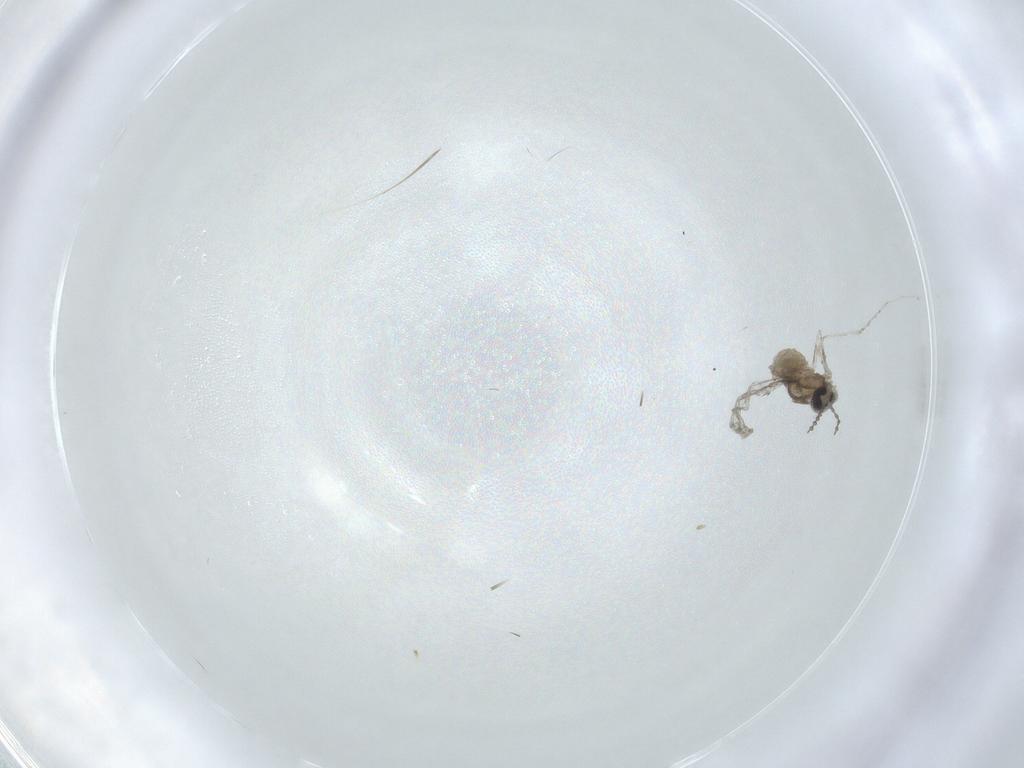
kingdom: Animalia
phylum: Arthropoda
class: Insecta
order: Diptera
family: Cecidomyiidae
